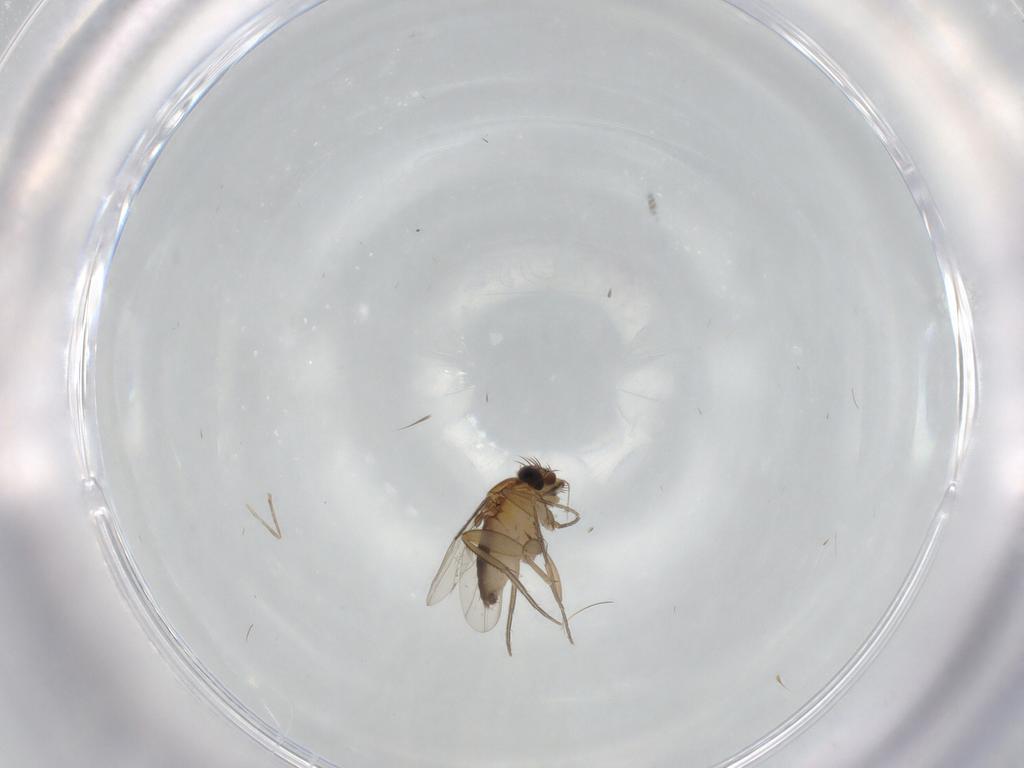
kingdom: Animalia
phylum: Arthropoda
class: Insecta
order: Diptera
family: Phoridae
